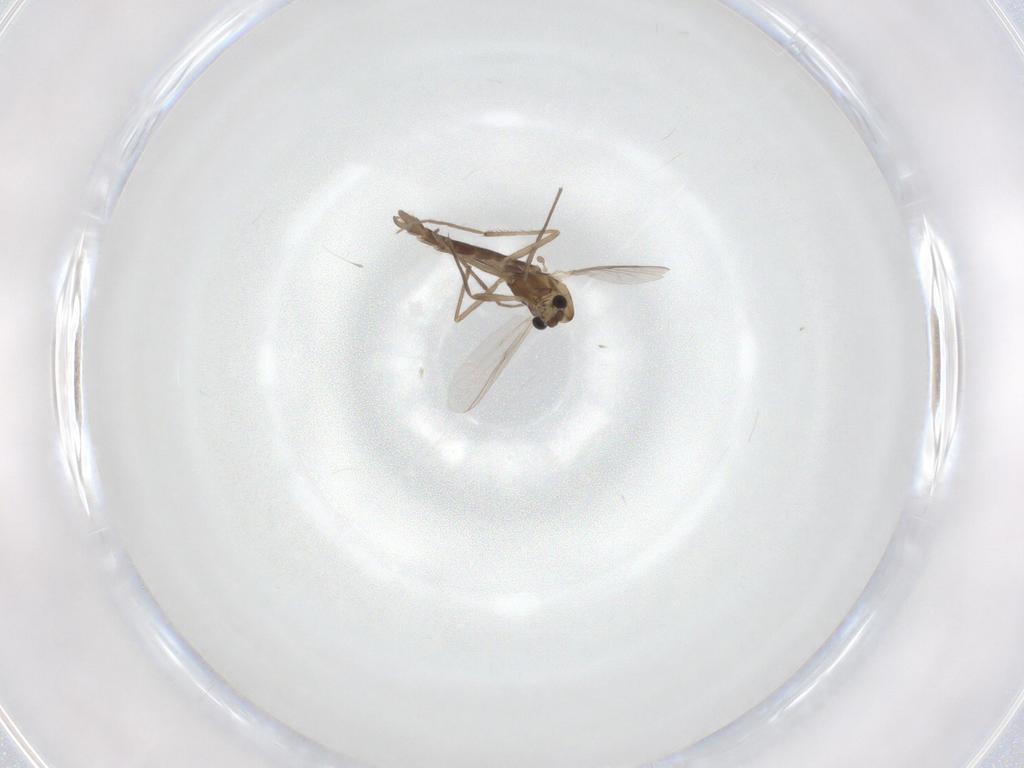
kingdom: Animalia
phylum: Arthropoda
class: Insecta
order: Diptera
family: Chironomidae
